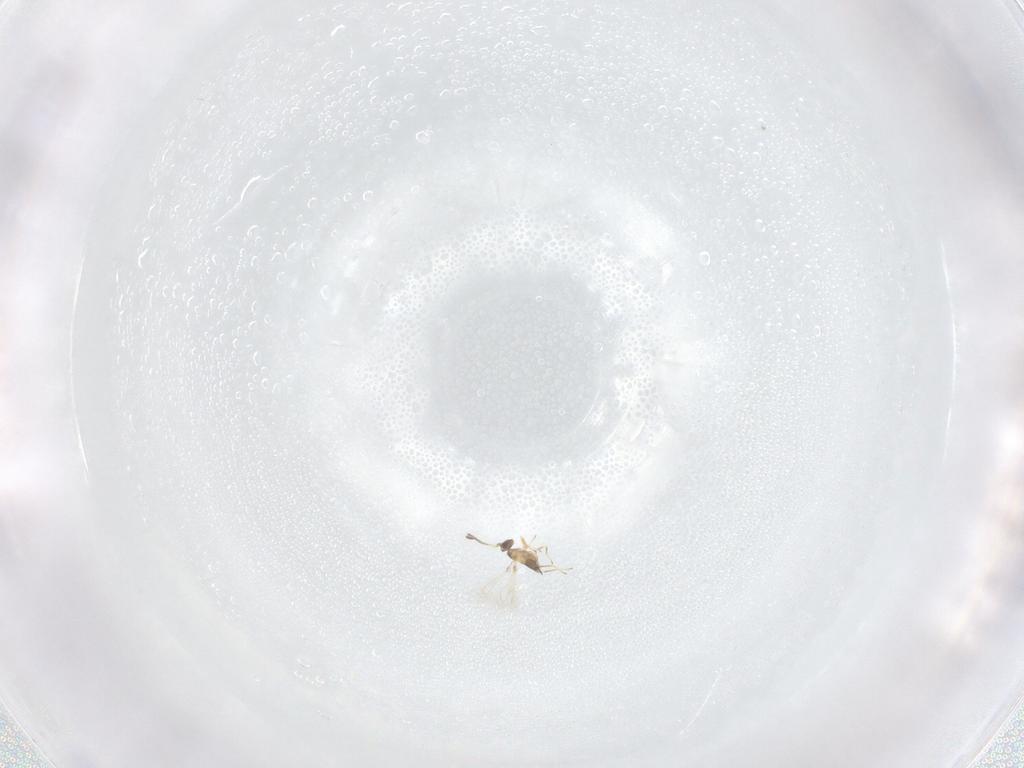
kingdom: Animalia
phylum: Arthropoda
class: Insecta
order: Hymenoptera
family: Mymaridae
